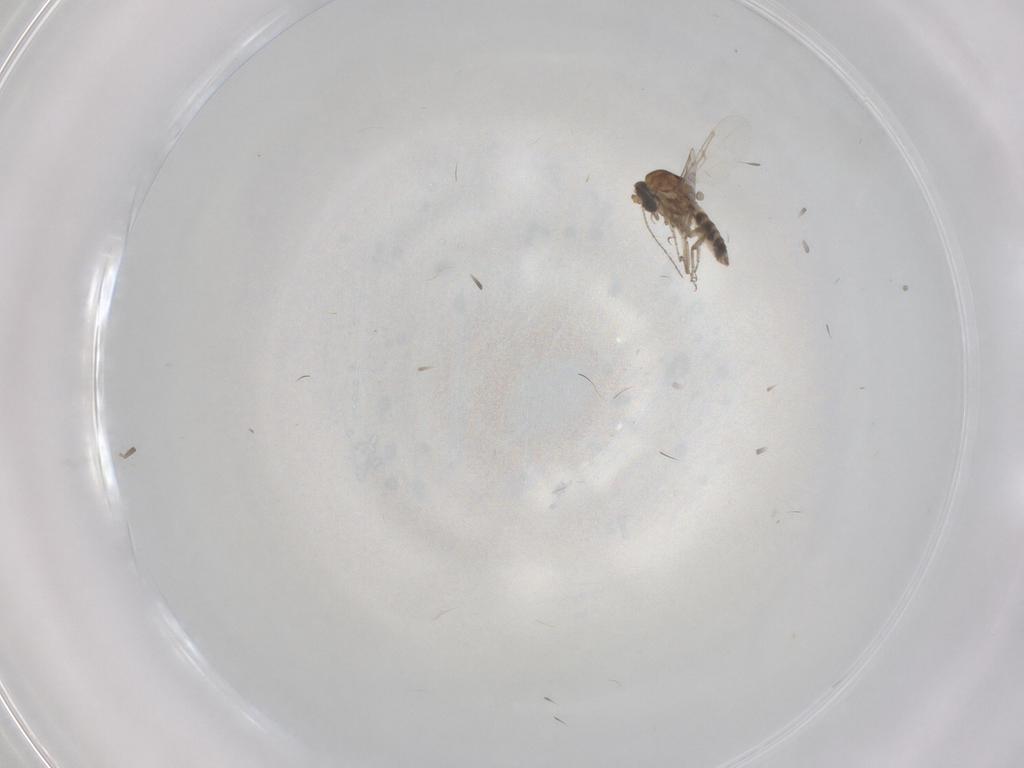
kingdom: Animalia
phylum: Arthropoda
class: Insecta
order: Diptera
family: Ceratopogonidae
